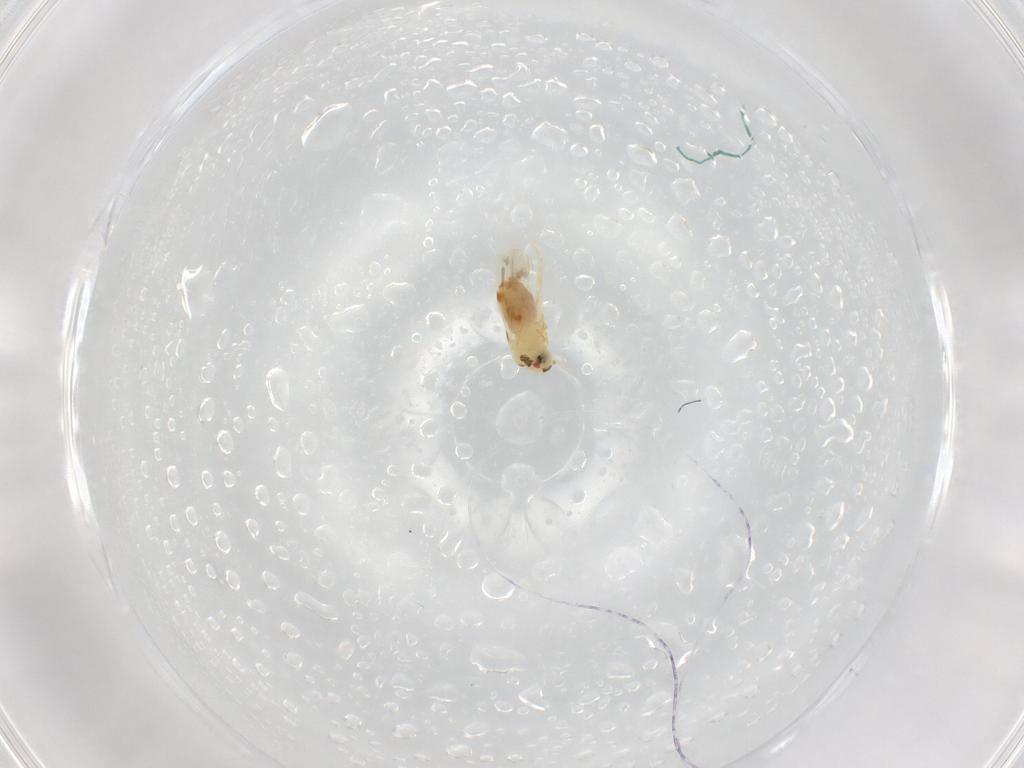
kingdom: Animalia
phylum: Arthropoda
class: Insecta
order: Hemiptera
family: Aleyrodidae
